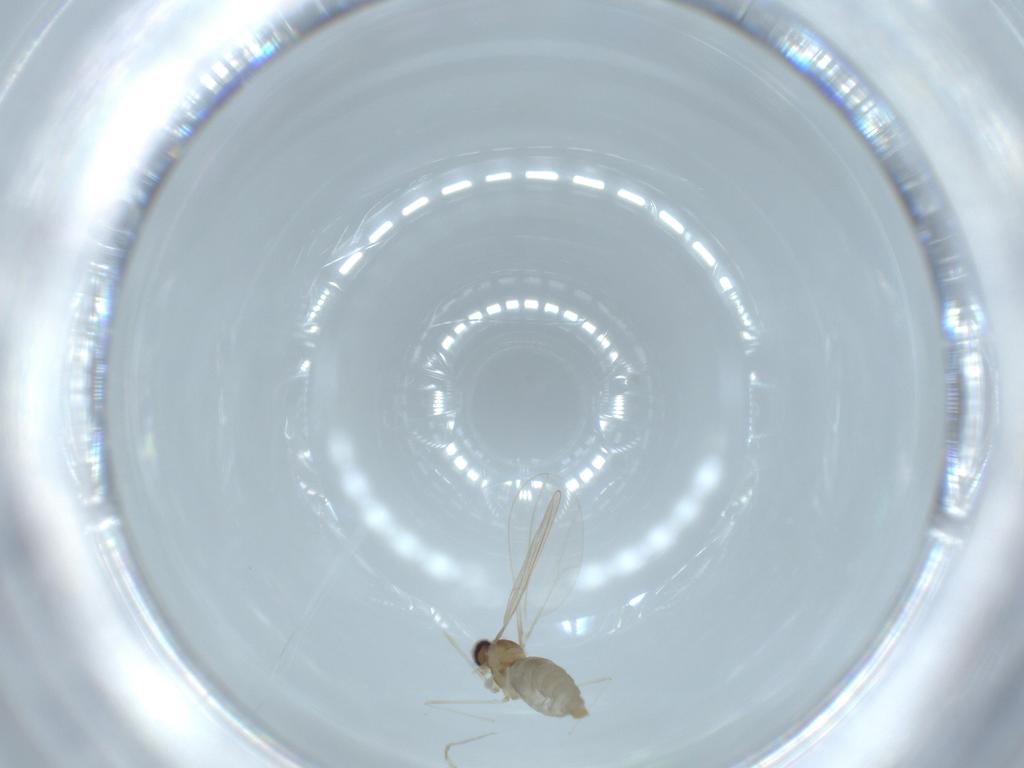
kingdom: Animalia
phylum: Arthropoda
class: Insecta
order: Diptera
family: Cecidomyiidae
